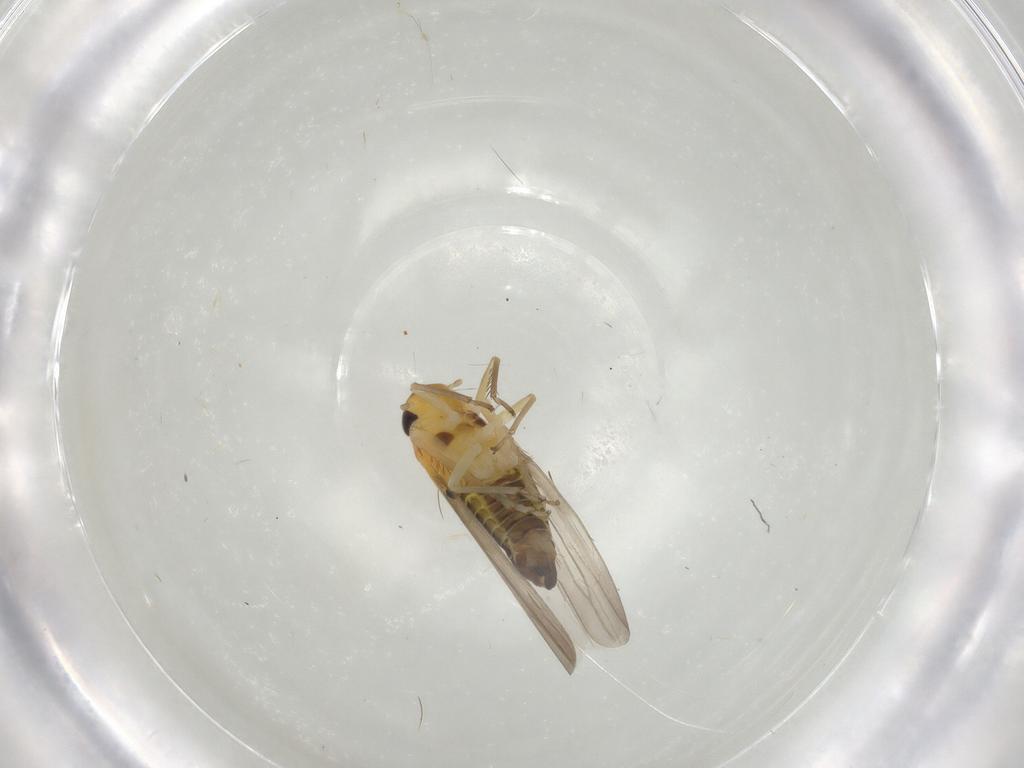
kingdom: Animalia
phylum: Arthropoda
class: Insecta
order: Hemiptera
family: Cicadellidae
